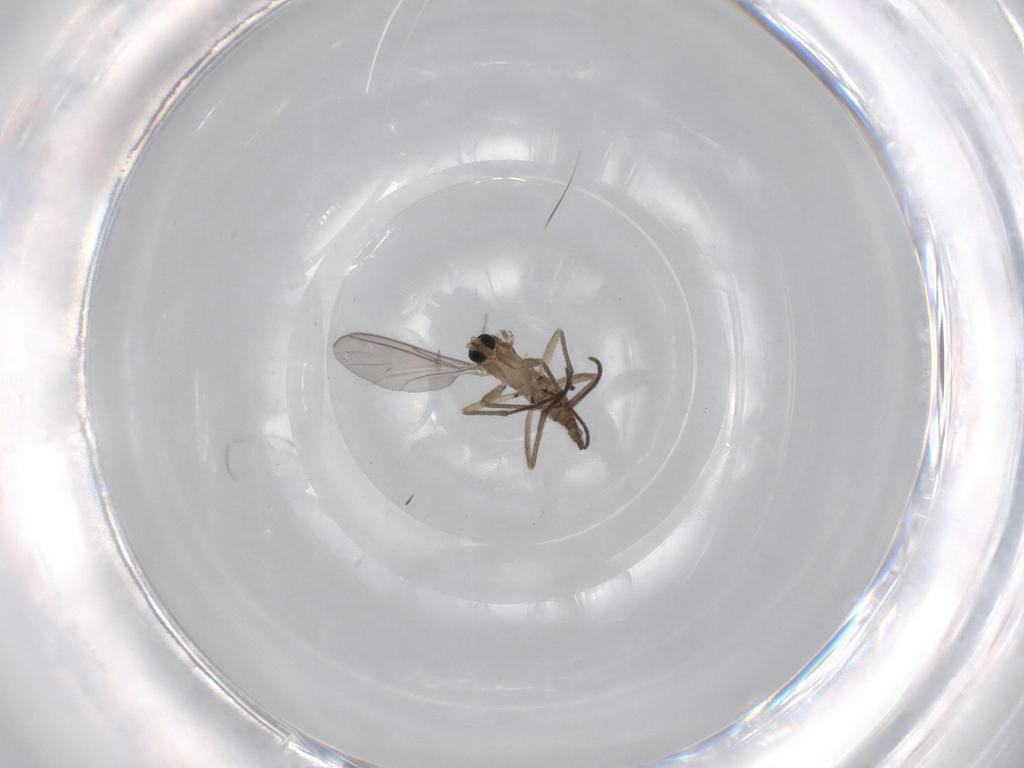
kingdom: Animalia
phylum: Arthropoda
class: Insecta
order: Diptera
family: Sciaridae
